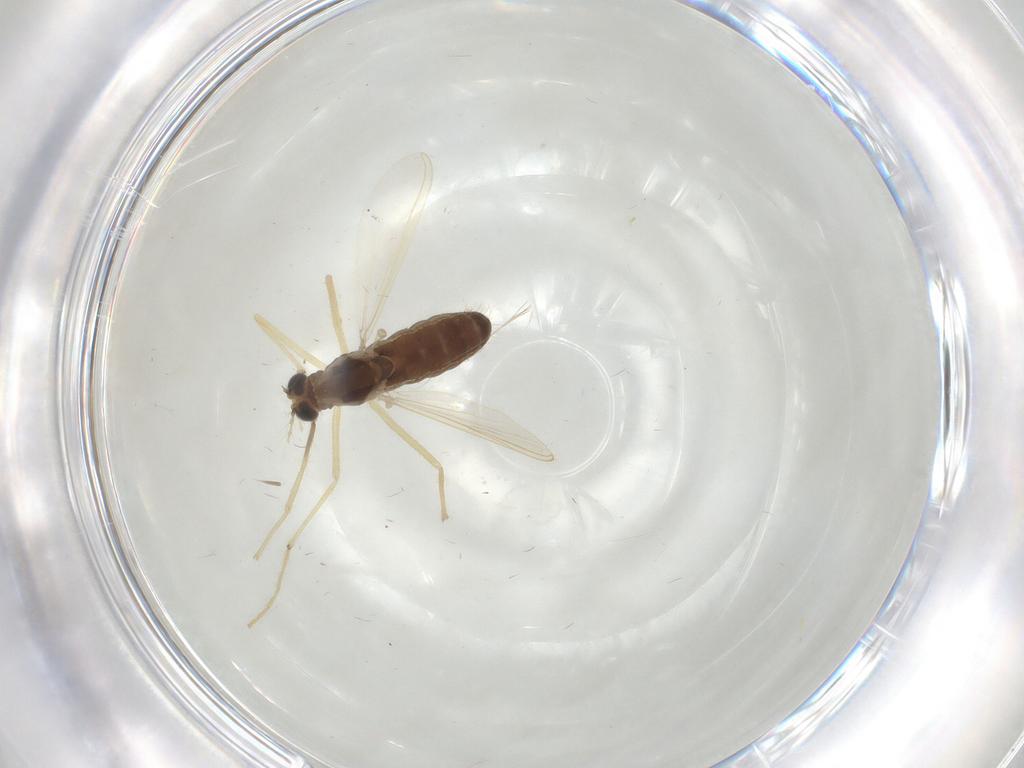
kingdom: Animalia
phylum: Arthropoda
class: Insecta
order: Diptera
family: Chironomidae
